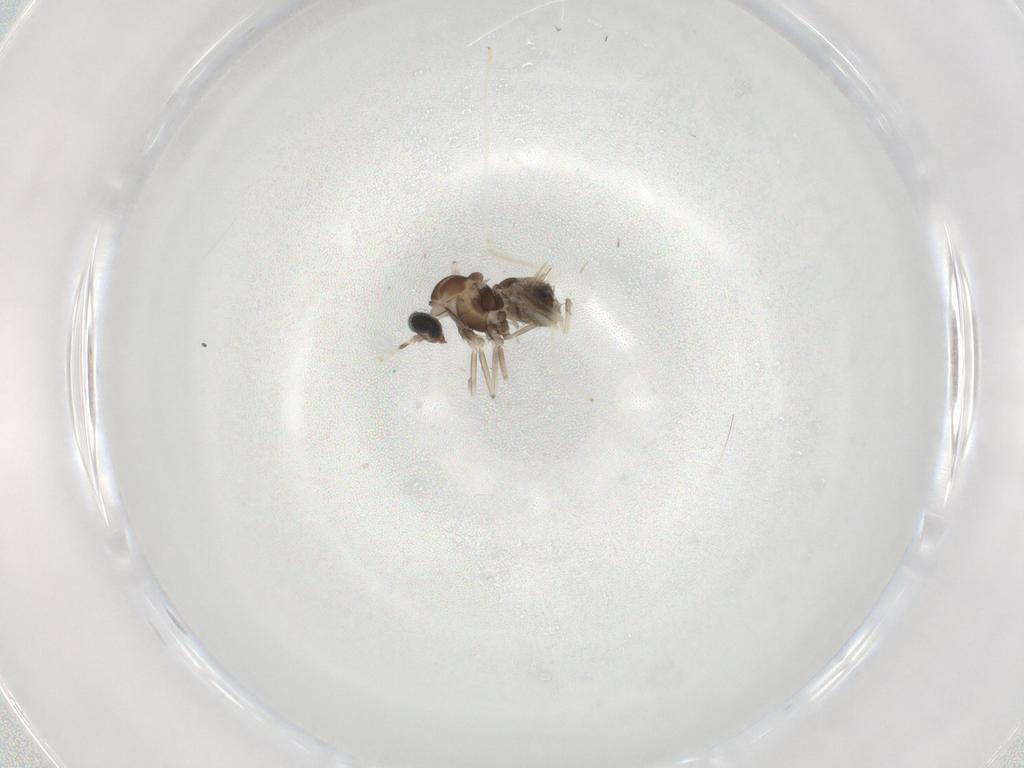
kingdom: Animalia
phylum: Arthropoda
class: Insecta
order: Diptera
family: Cecidomyiidae
